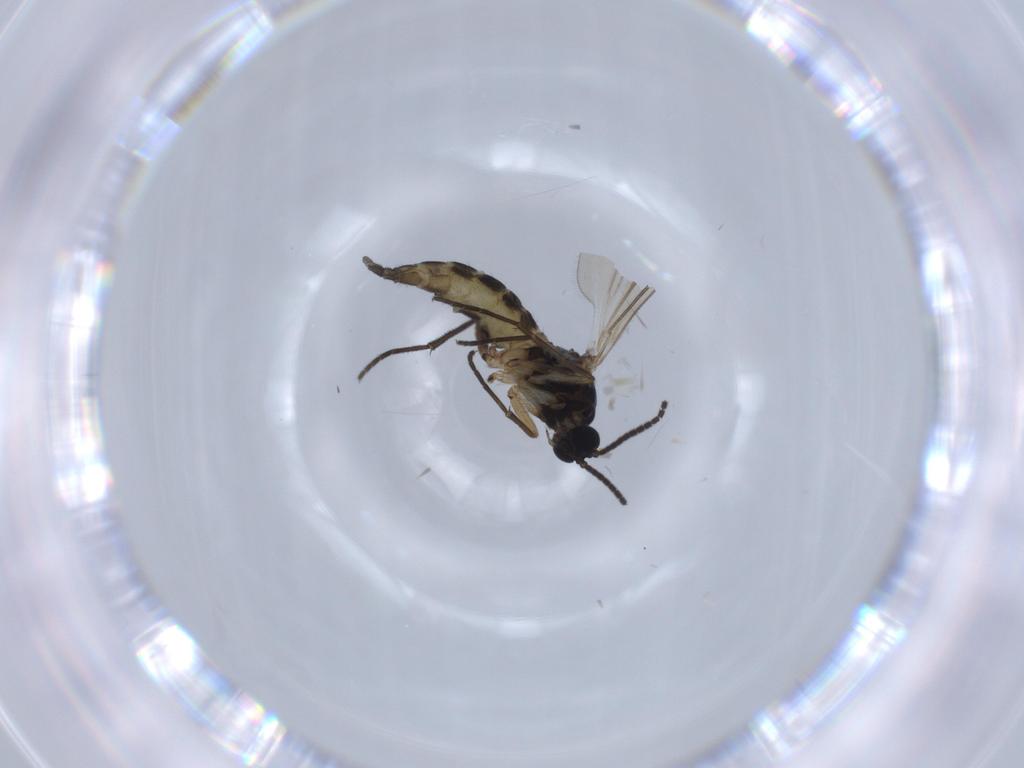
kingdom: Animalia
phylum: Arthropoda
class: Insecta
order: Diptera
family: Sciaridae
